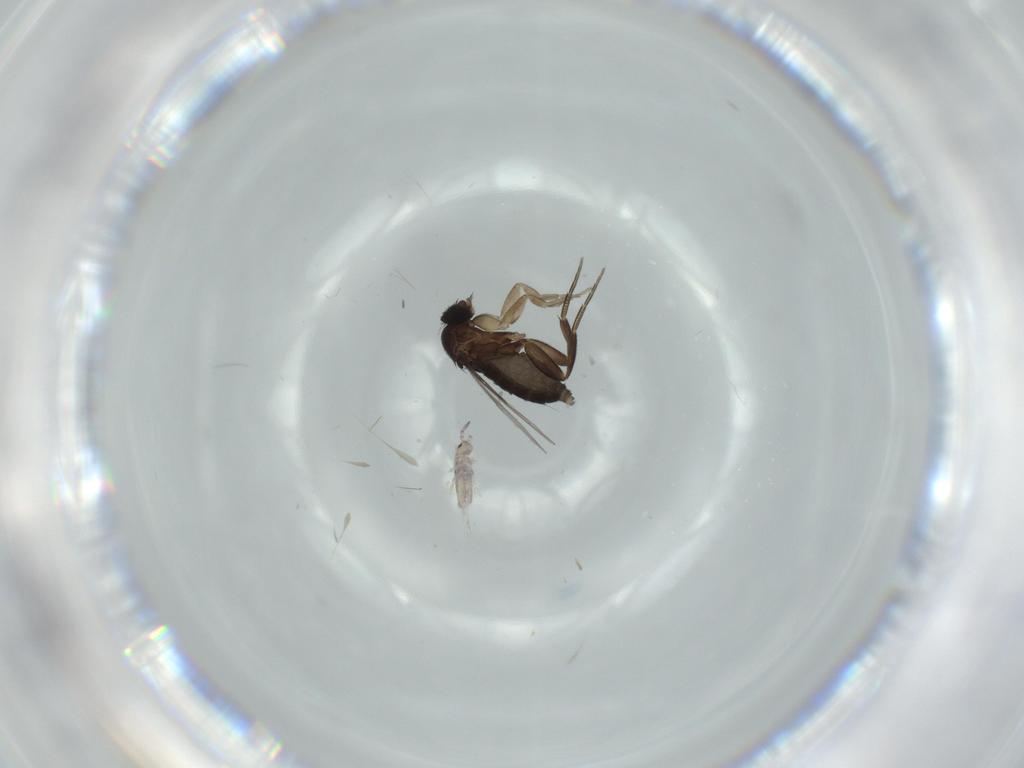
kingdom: Animalia
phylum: Arthropoda
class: Insecta
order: Diptera
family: Phoridae
